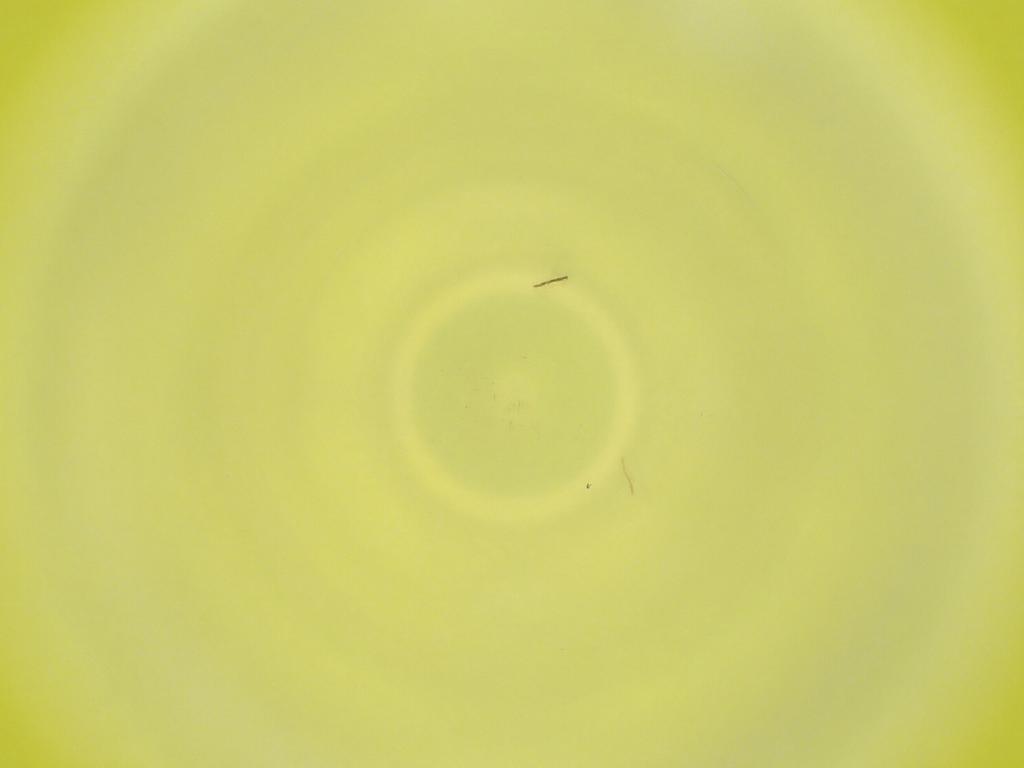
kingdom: Animalia
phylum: Arthropoda
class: Insecta
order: Diptera
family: Cecidomyiidae
